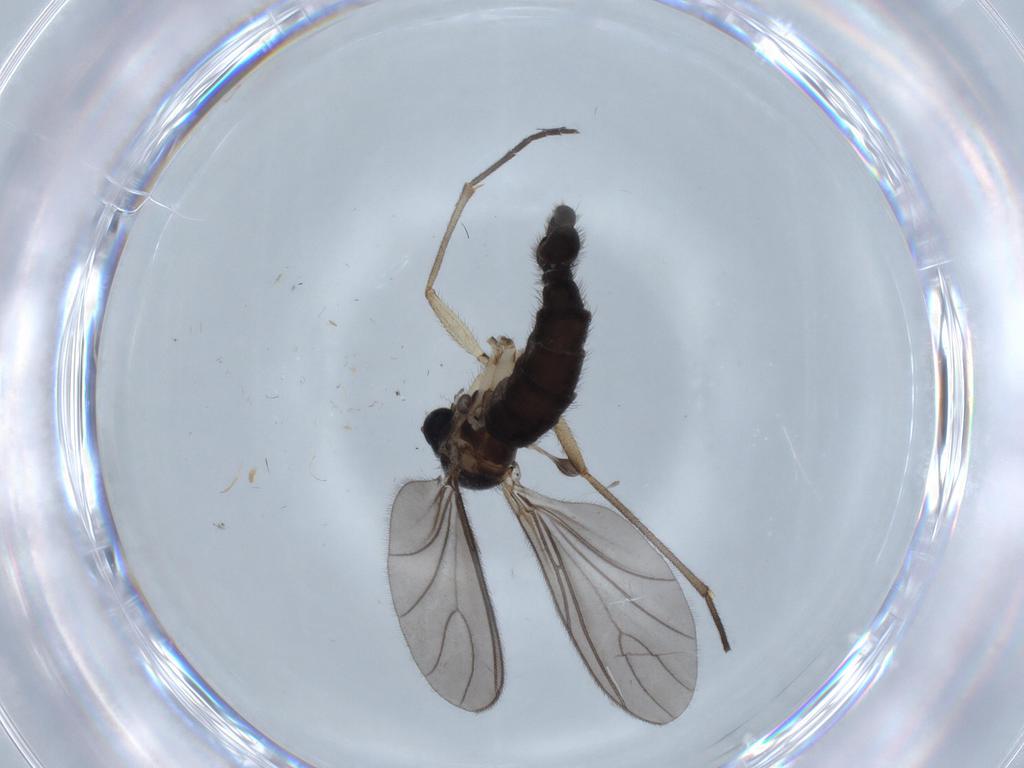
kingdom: Animalia
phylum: Arthropoda
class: Insecta
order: Diptera
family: Sciaridae
